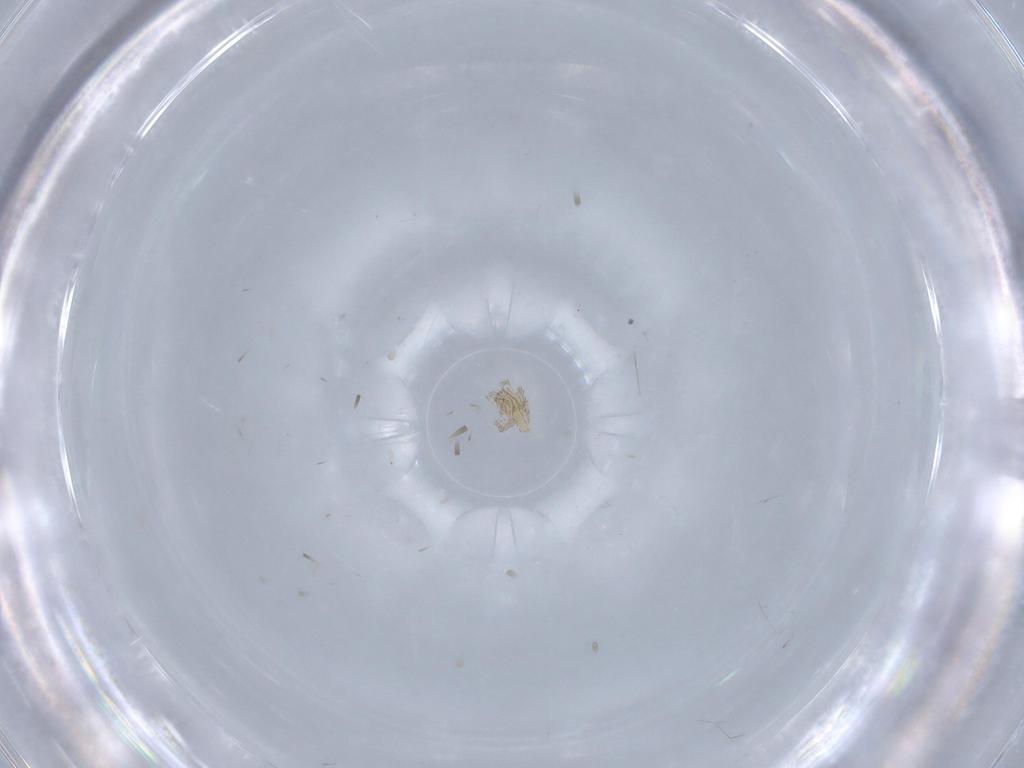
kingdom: Animalia
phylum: Arthropoda
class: Arachnida
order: Trombidiformes
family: Erythraeidae
